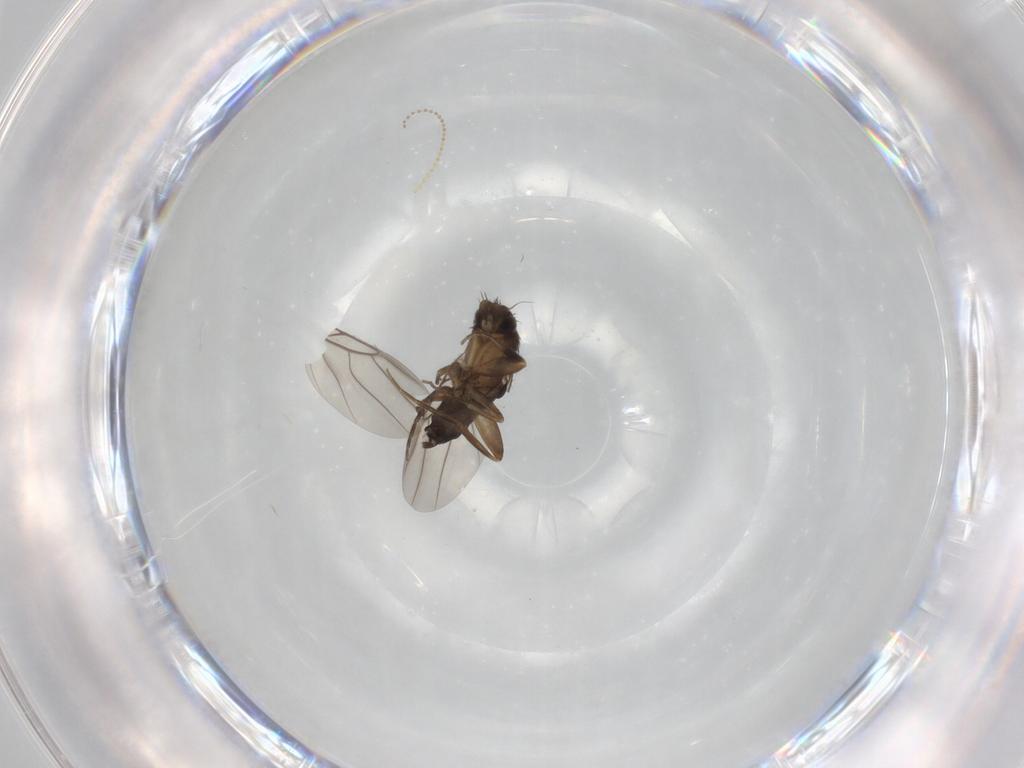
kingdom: Animalia
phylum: Arthropoda
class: Insecta
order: Diptera
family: Phoridae
